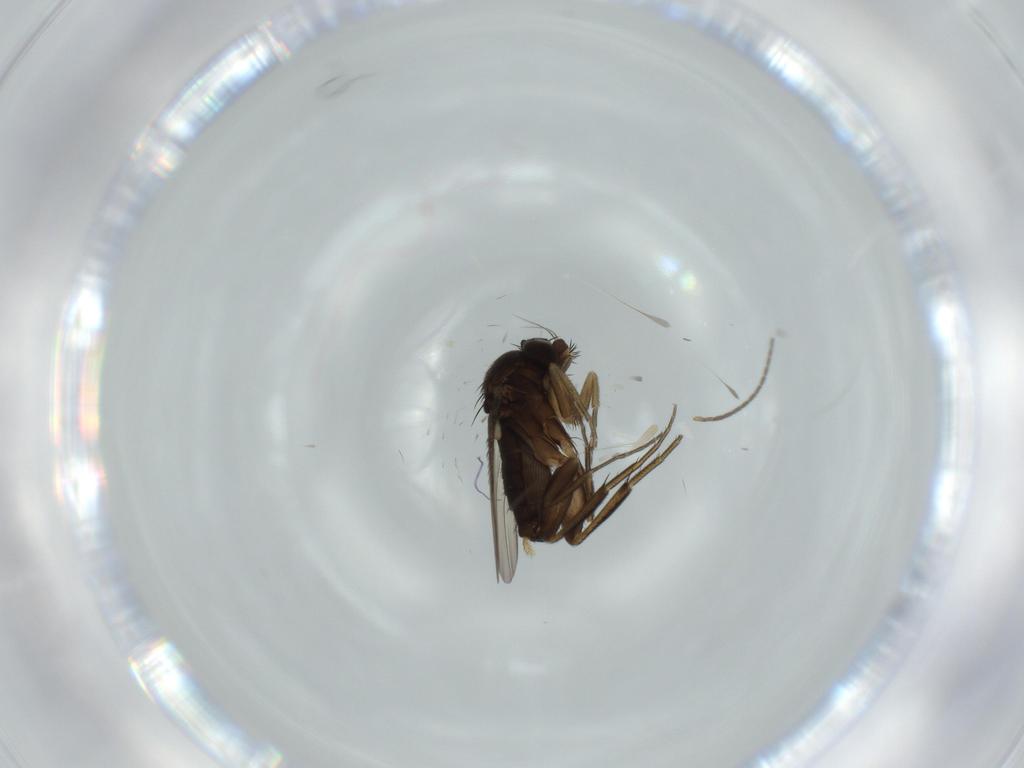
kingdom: Animalia
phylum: Arthropoda
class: Insecta
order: Diptera
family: Phoridae
